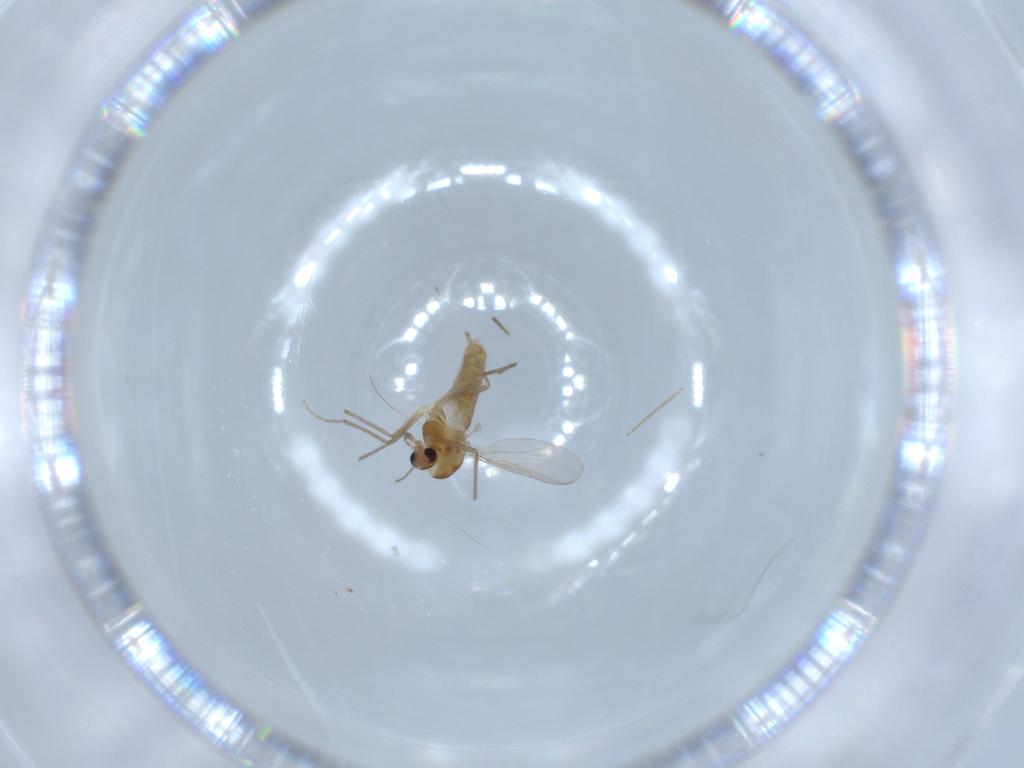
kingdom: Animalia
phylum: Arthropoda
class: Insecta
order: Diptera
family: Chironomidae
